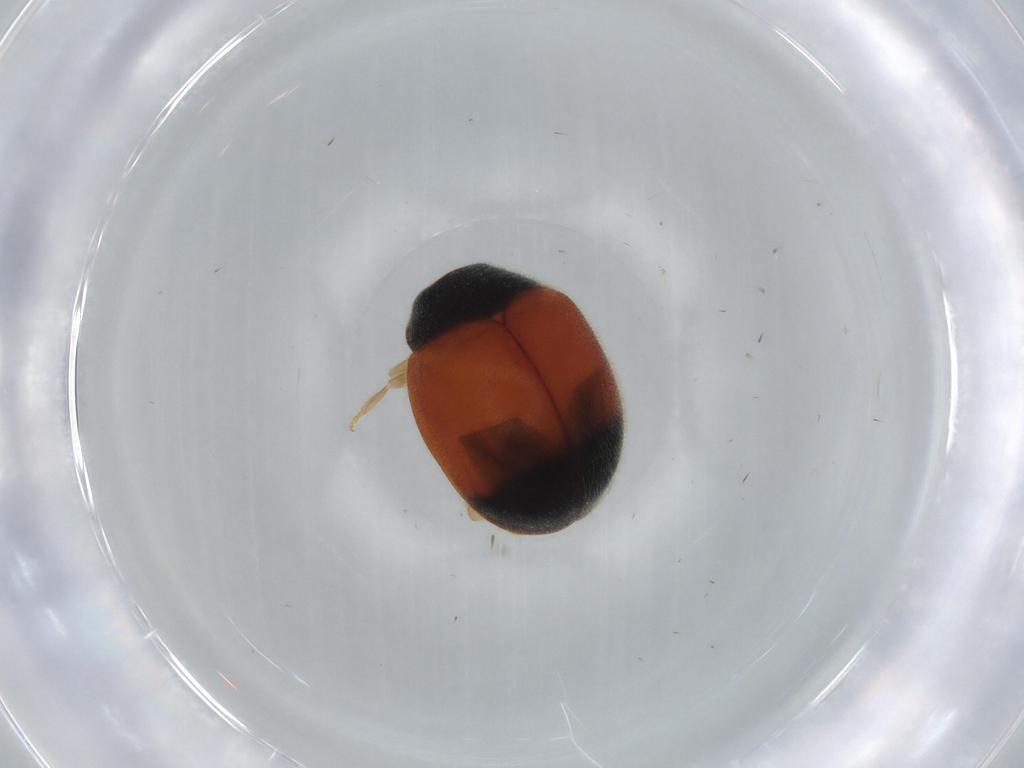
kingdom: Animalia
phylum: Arthropoda
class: Insecta
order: Coleoptera
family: Coccinellidae
